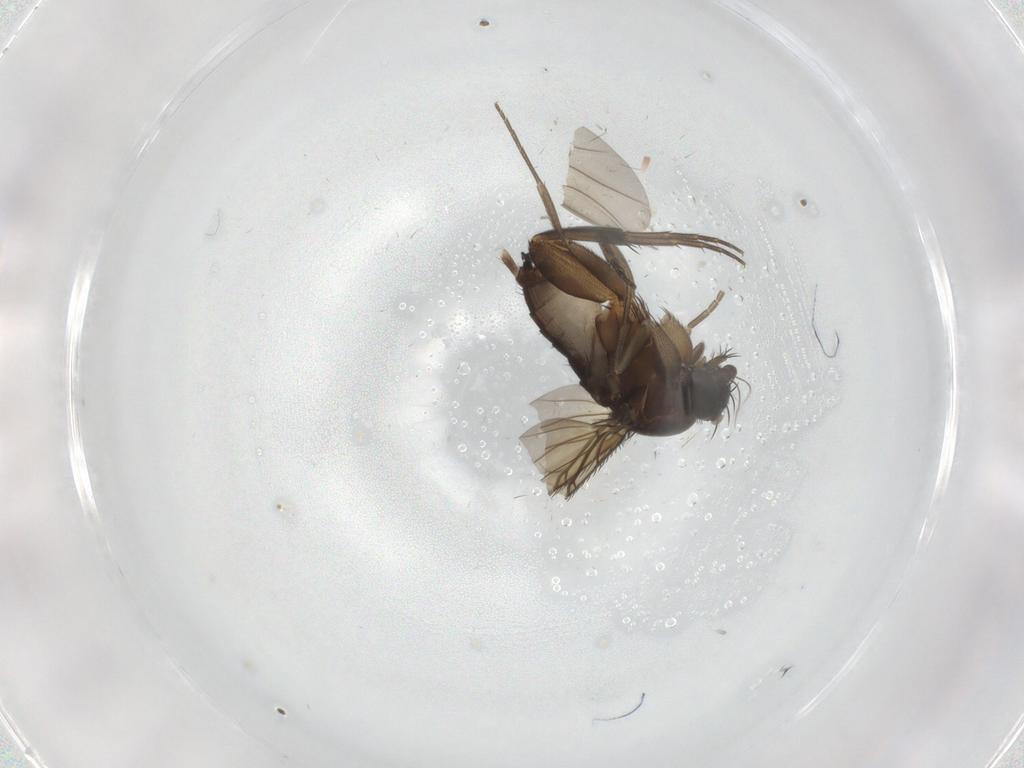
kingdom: Animalia
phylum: Arthropoda
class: Insecta
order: Diptera
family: Phoridae
